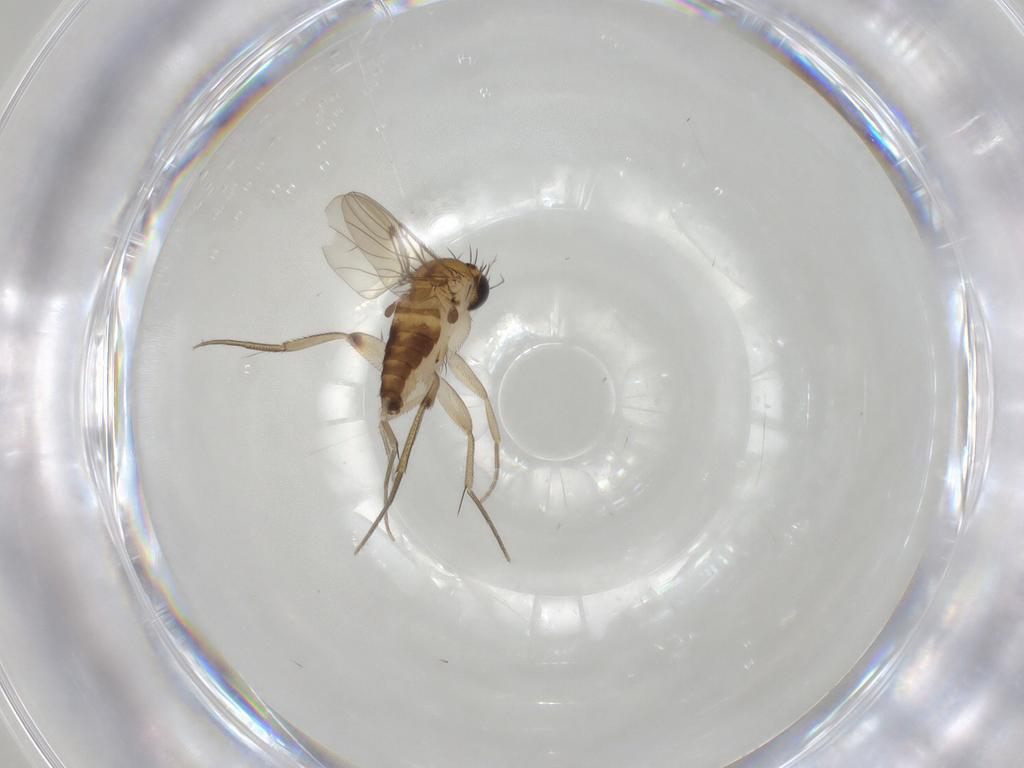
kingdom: Animalia
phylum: Arthropoda
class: Insecta
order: Diptera
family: Phoridae
